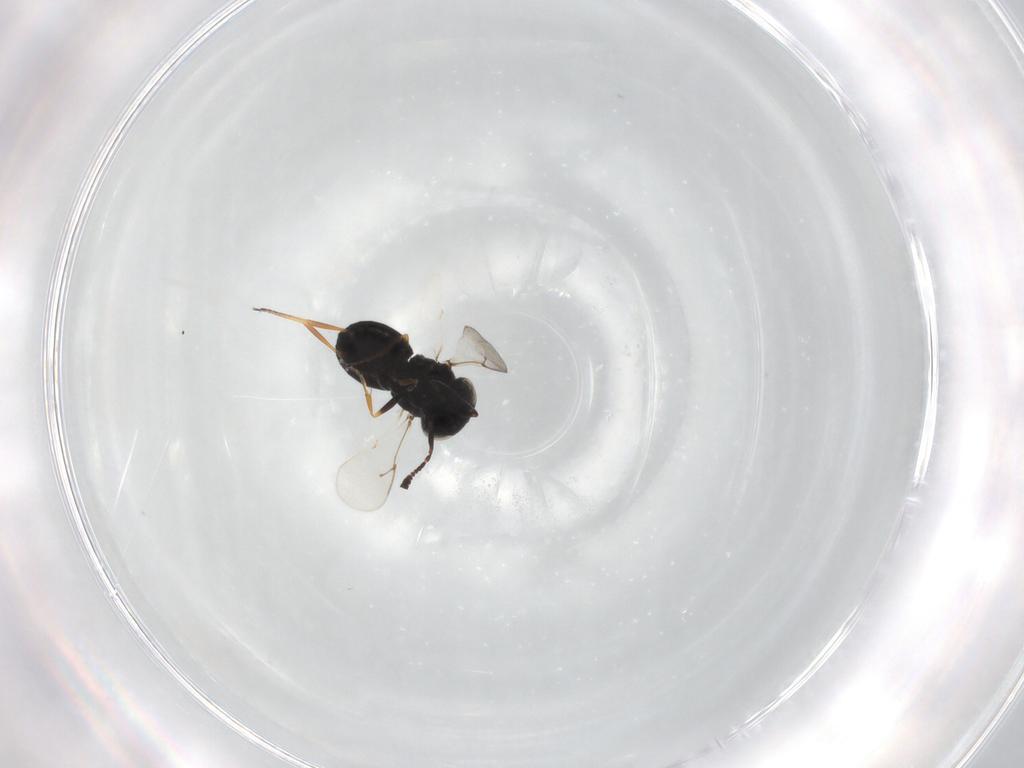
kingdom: Animalia
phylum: Arthropoda
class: Insecta
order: Hymenoptera
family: Scelionidae
